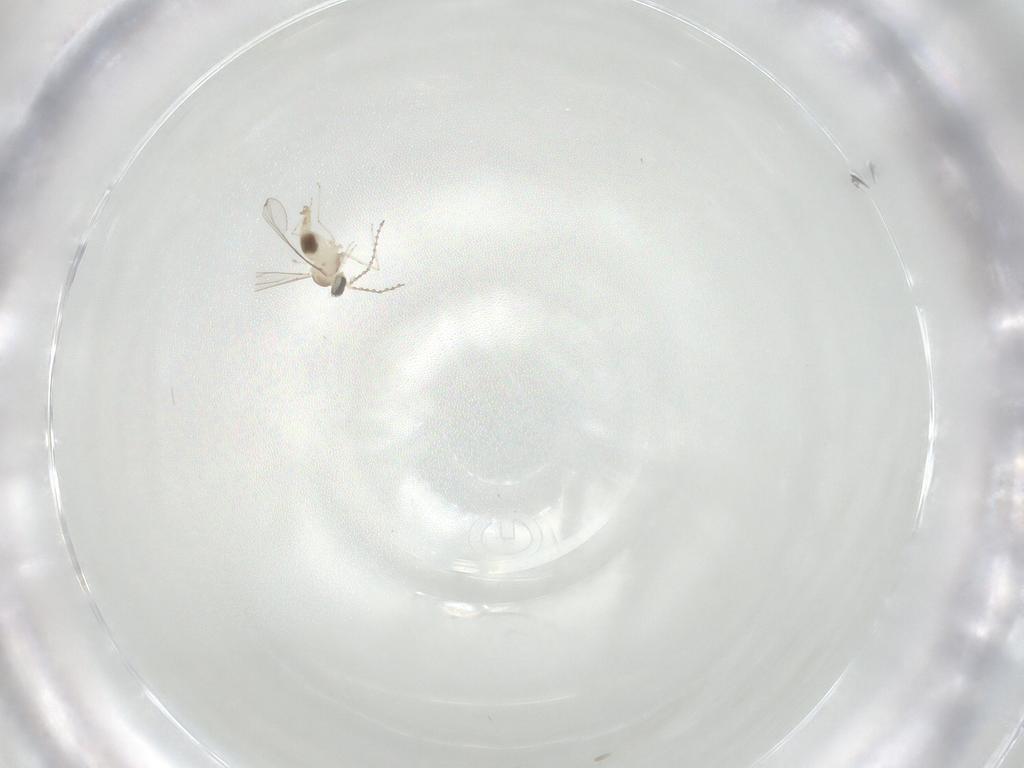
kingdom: Animalia
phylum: Arthropoda
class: Insecta
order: Diptera
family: Cecidomyiidae
